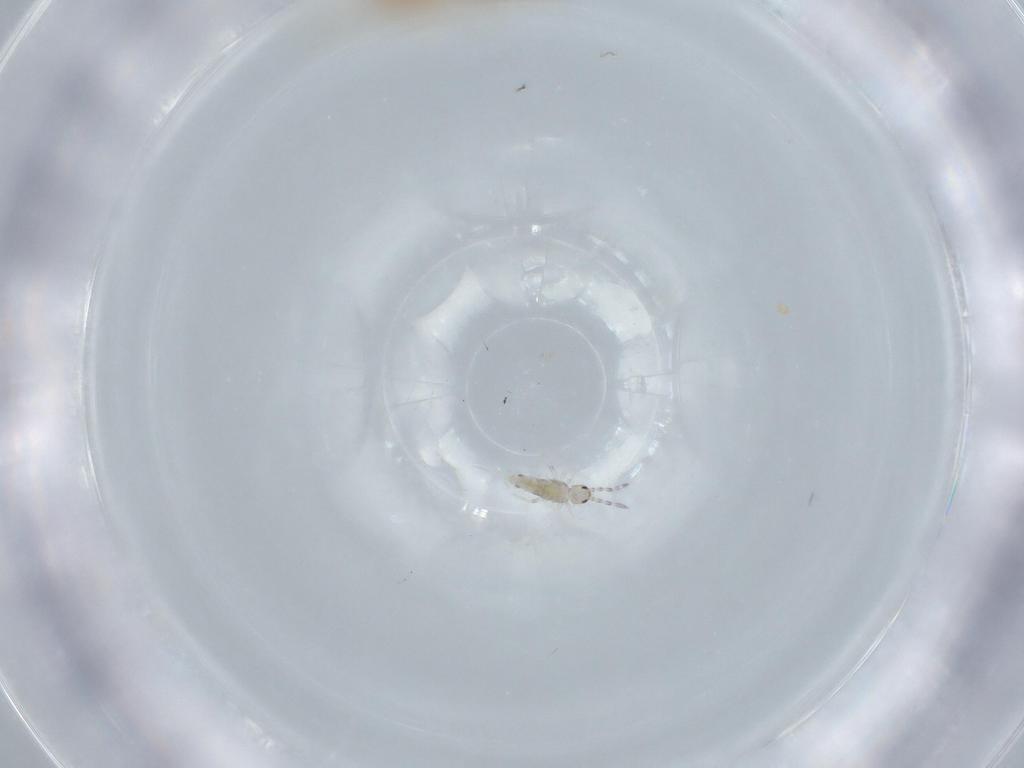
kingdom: Animalia
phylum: Arthropoda
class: Collembola
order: Entomobryomorpha
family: Entomobryidae
